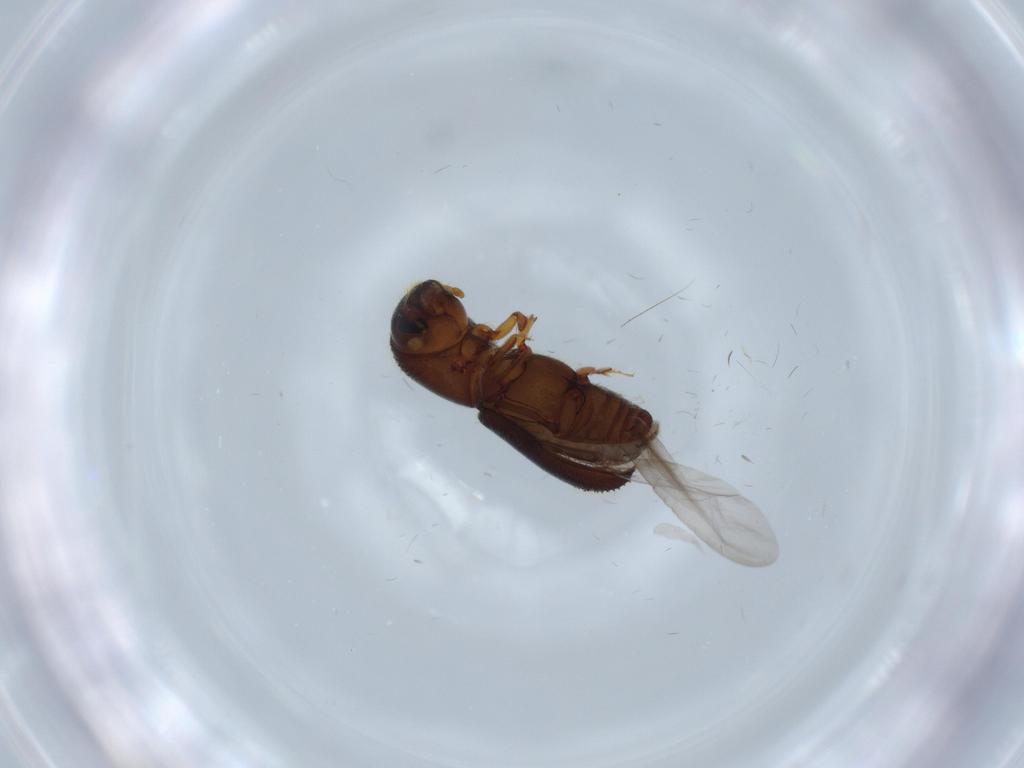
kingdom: Animalia
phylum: Arthropoda
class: Insecta
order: Coleoptera
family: Curculionidae
